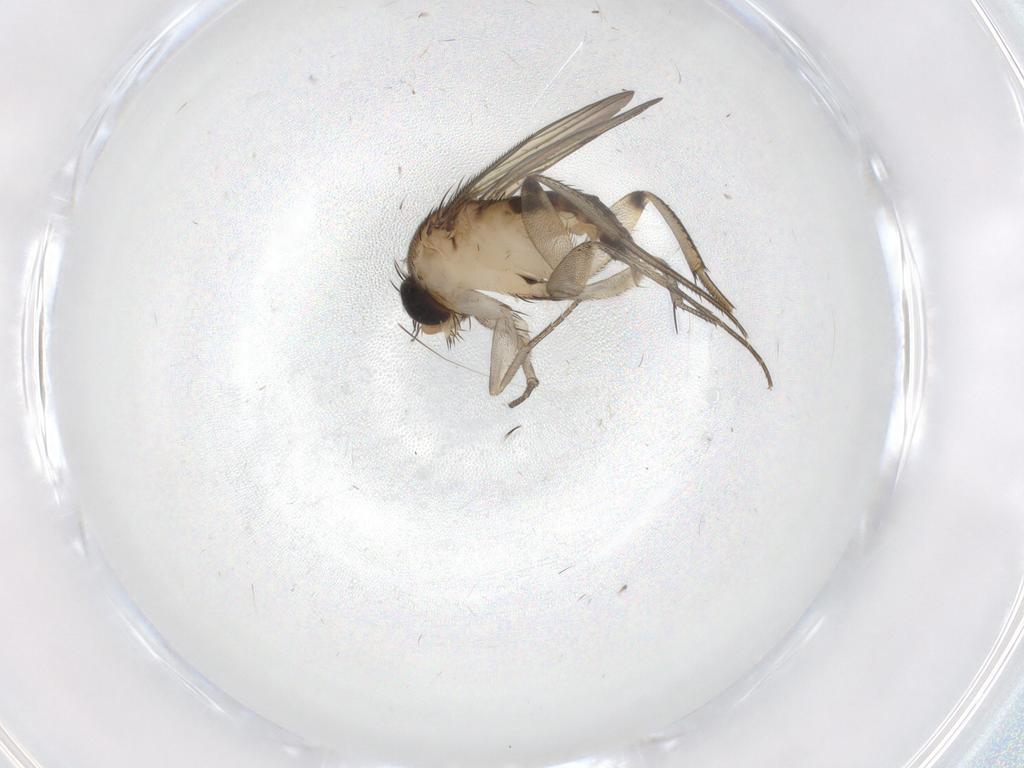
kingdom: Animalia
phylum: Arthropoda
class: Insecta
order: Diptera
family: Phoridae
